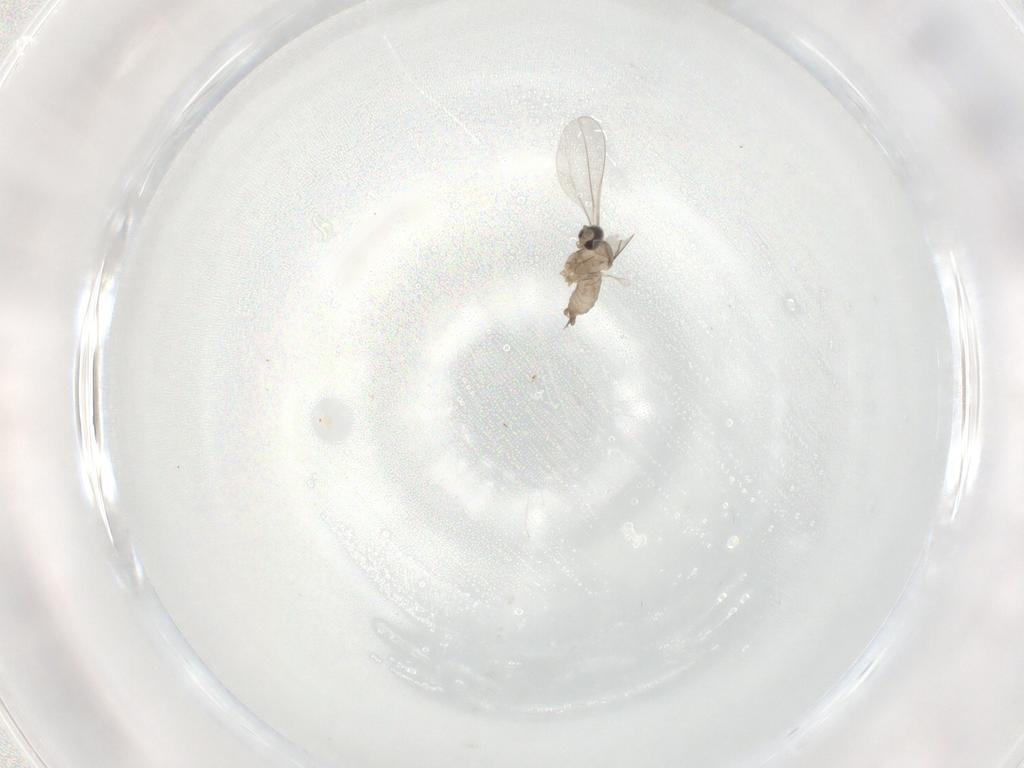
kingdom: Animalia
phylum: Arthropoda
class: Insecta
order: Diptera
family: Cecidomyiidae
